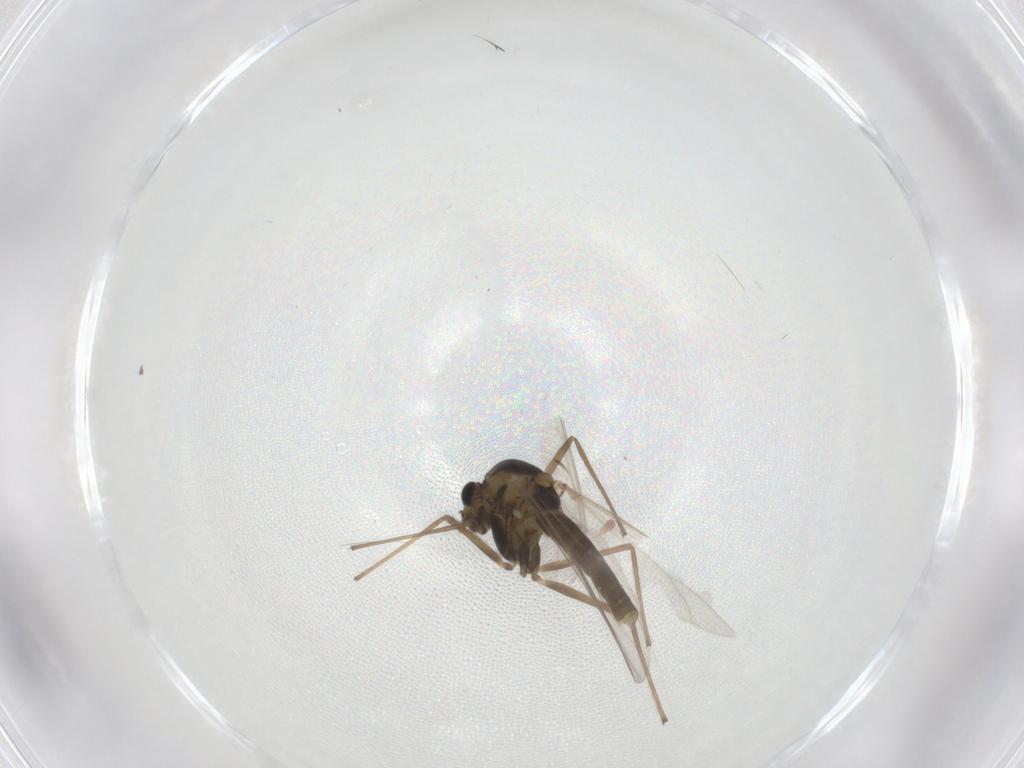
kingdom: Animalia
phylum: Arthropoda
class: Insecta
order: Diptera
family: Chironomidae
